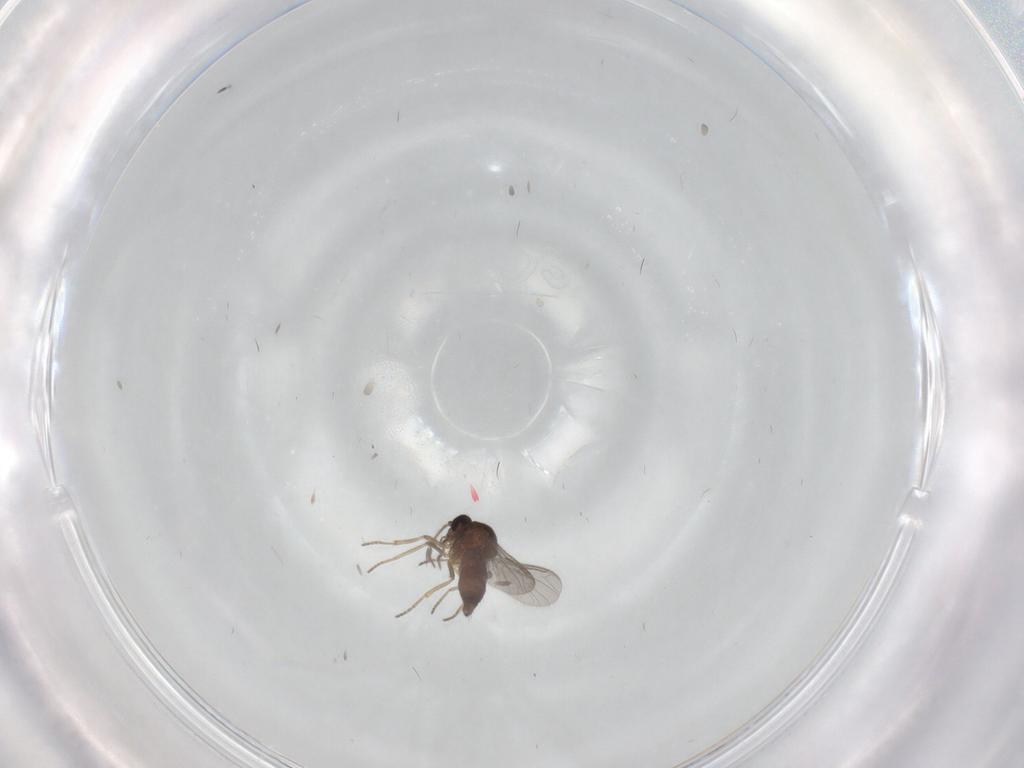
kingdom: Animalia
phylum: Arthropoda
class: Insecta
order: Diptera
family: Ceratopogonidae
